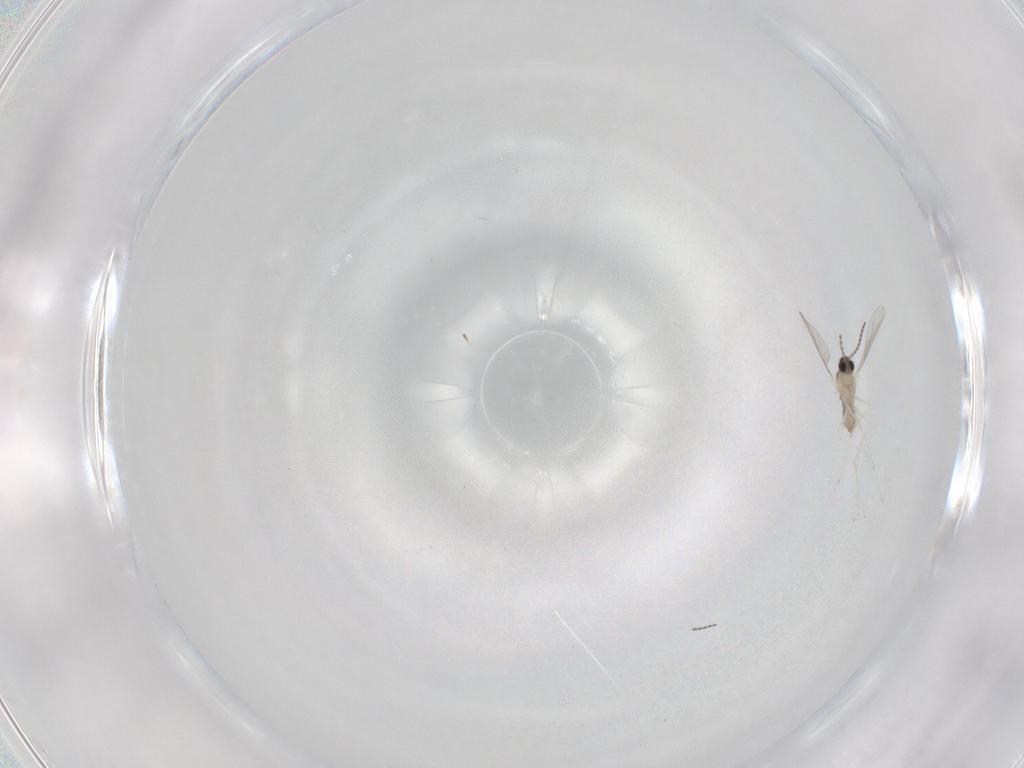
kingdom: Animalia
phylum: Arthropoda
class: Insecta
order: Diptera
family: Cecidomyiidae
